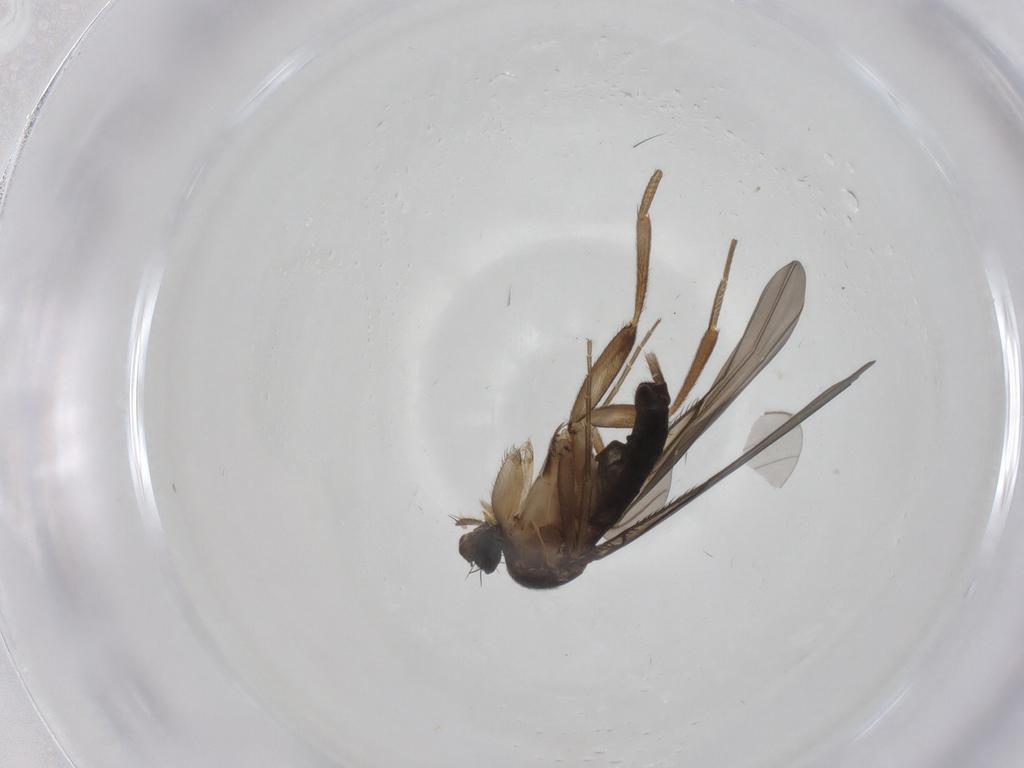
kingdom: Animalia
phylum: Arthropoda
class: Insecta
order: Diptera
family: Phoridae
